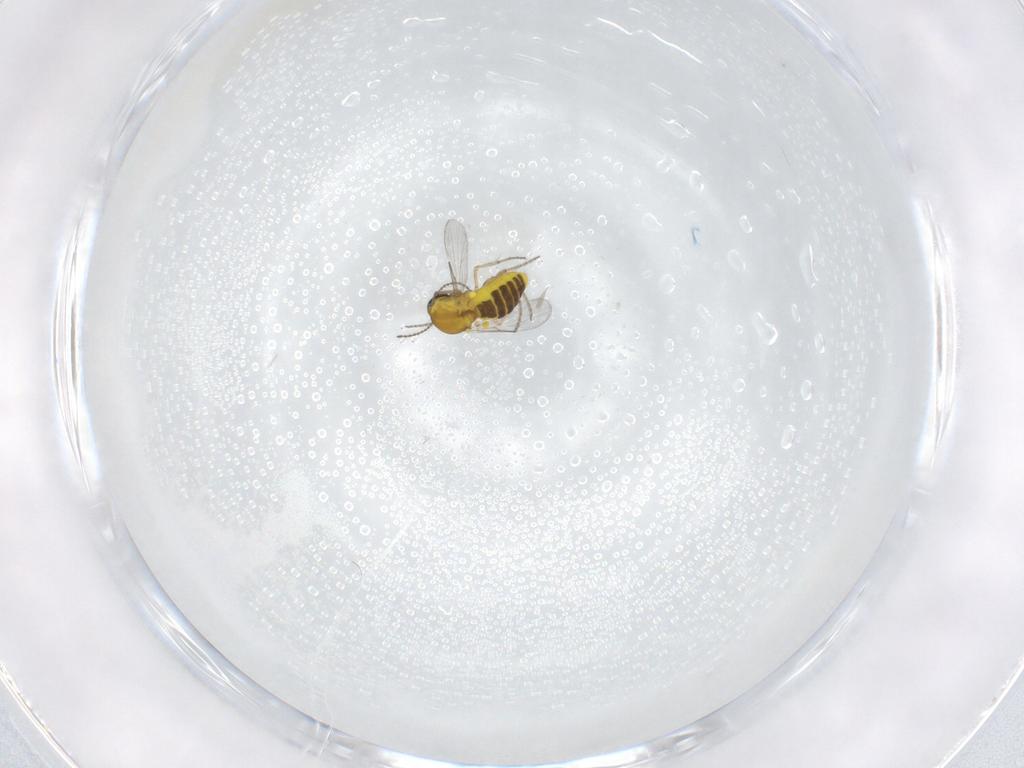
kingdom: Animalia
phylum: Arthropoda
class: Insecta
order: Diptera
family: Ceratopogonidae
